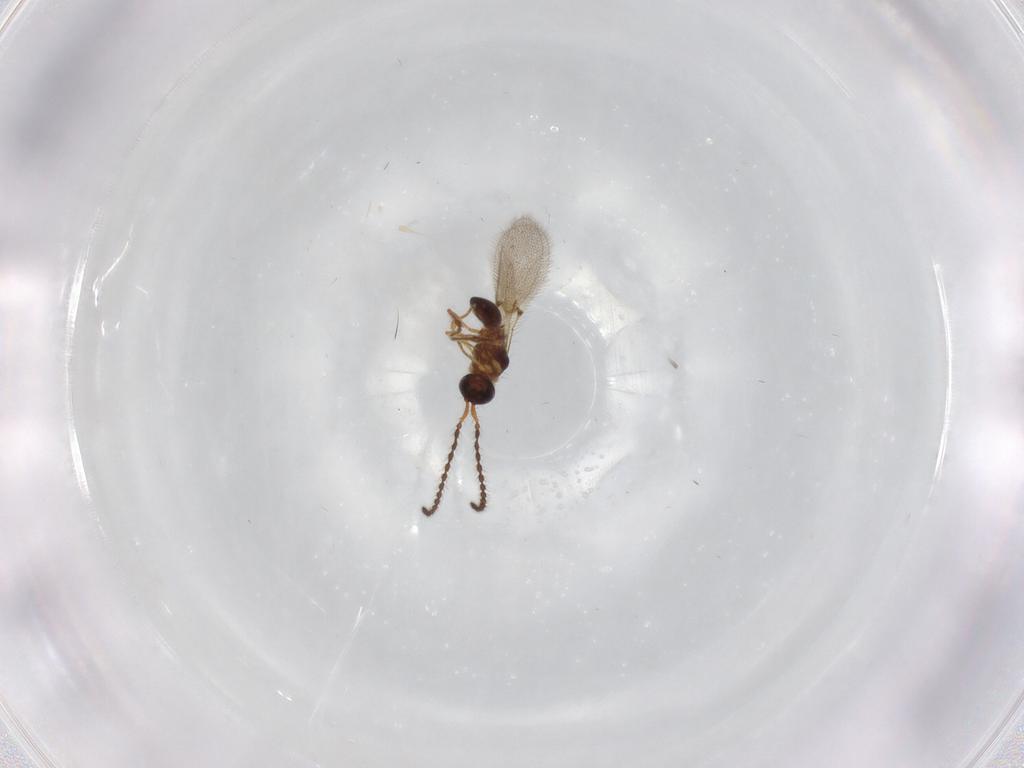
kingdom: Animalia
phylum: Arthropoda
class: Insecta
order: Hymenoptera
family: Diapriidae
